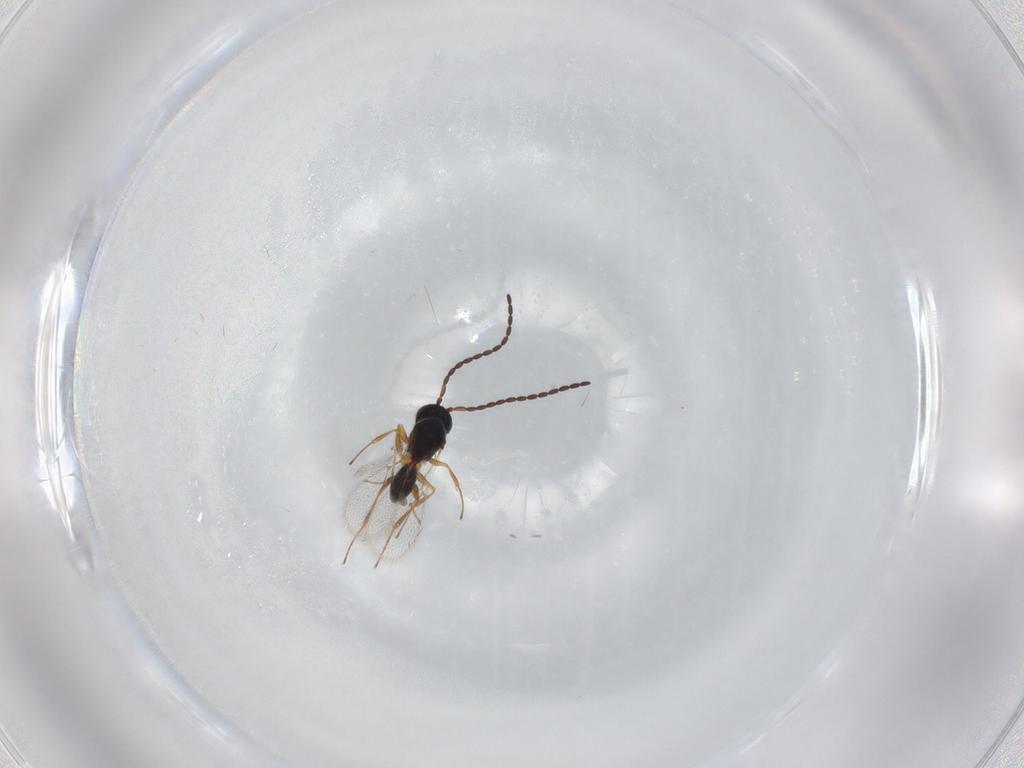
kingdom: Animalia
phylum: Arthropoda
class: Insecta
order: Hymenoptera
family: Figitidae
